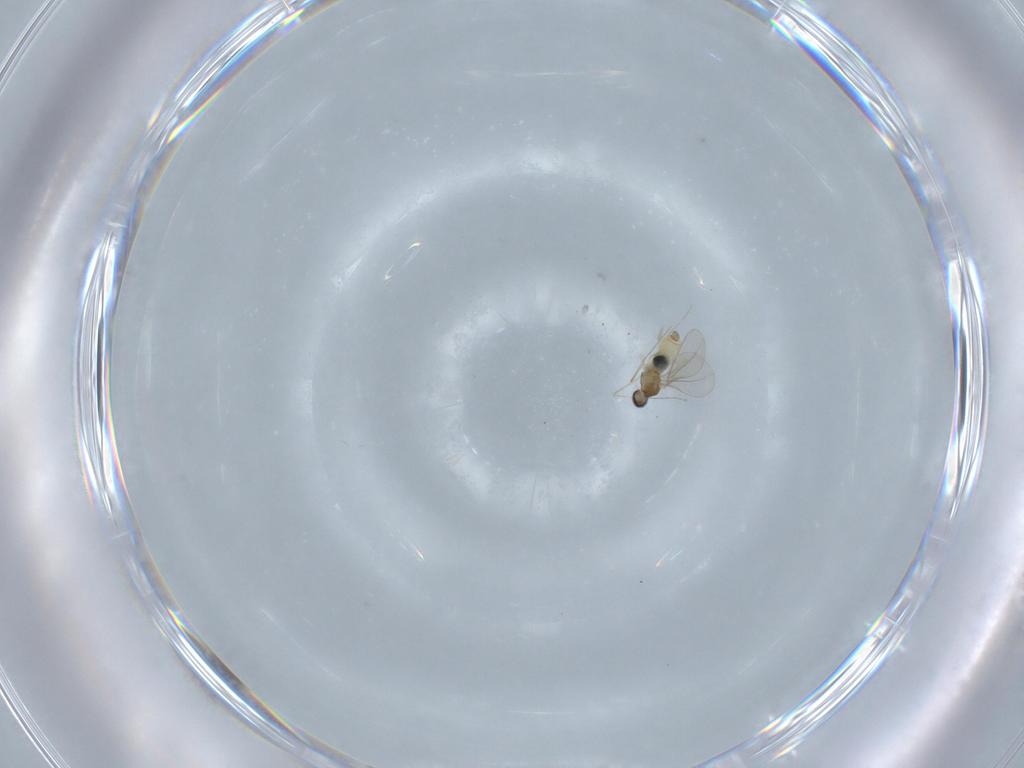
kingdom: Animalia
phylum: Arthropoda
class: Insecta
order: Diptera
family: Cecidomyiidae
